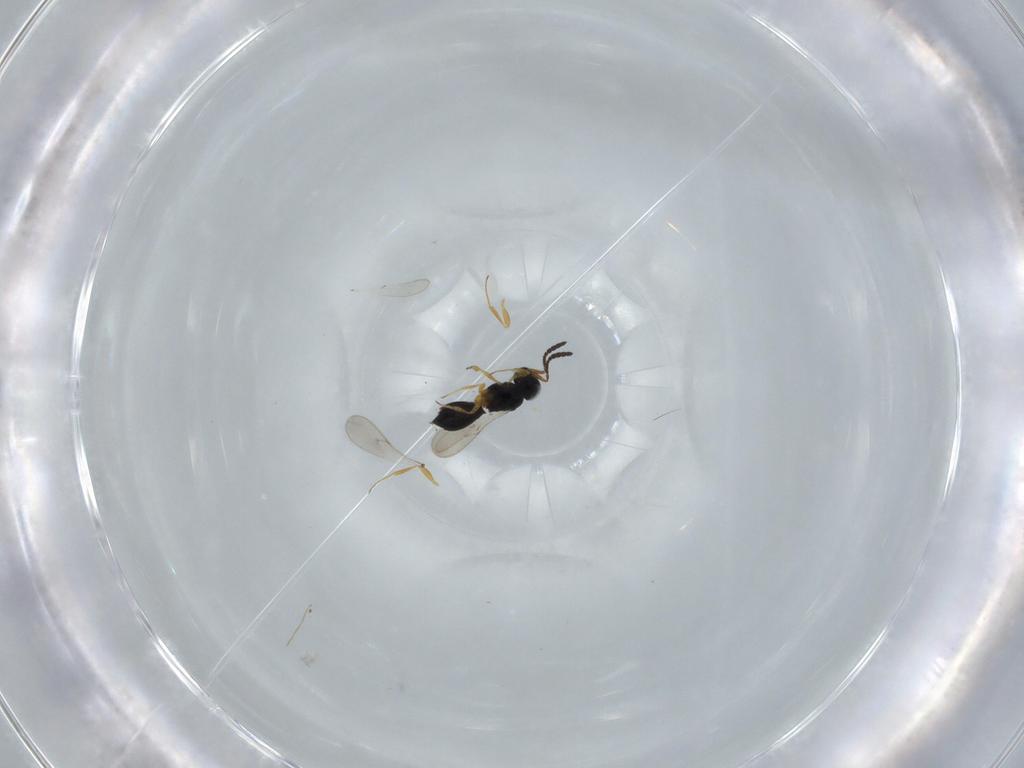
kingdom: Animalia
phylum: Arthropoda
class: Insecta
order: Hymenoptera
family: Scelionidae
